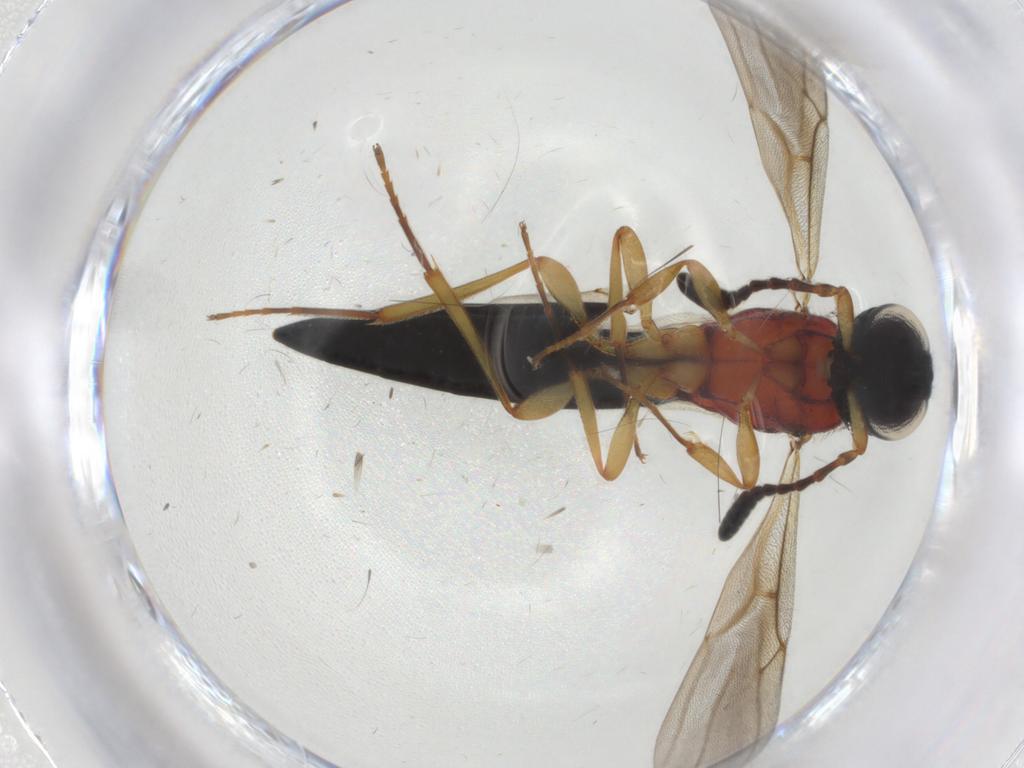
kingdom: Animalia
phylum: Arthropoda
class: Insecta
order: Hymenoptera
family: Scelionidae
